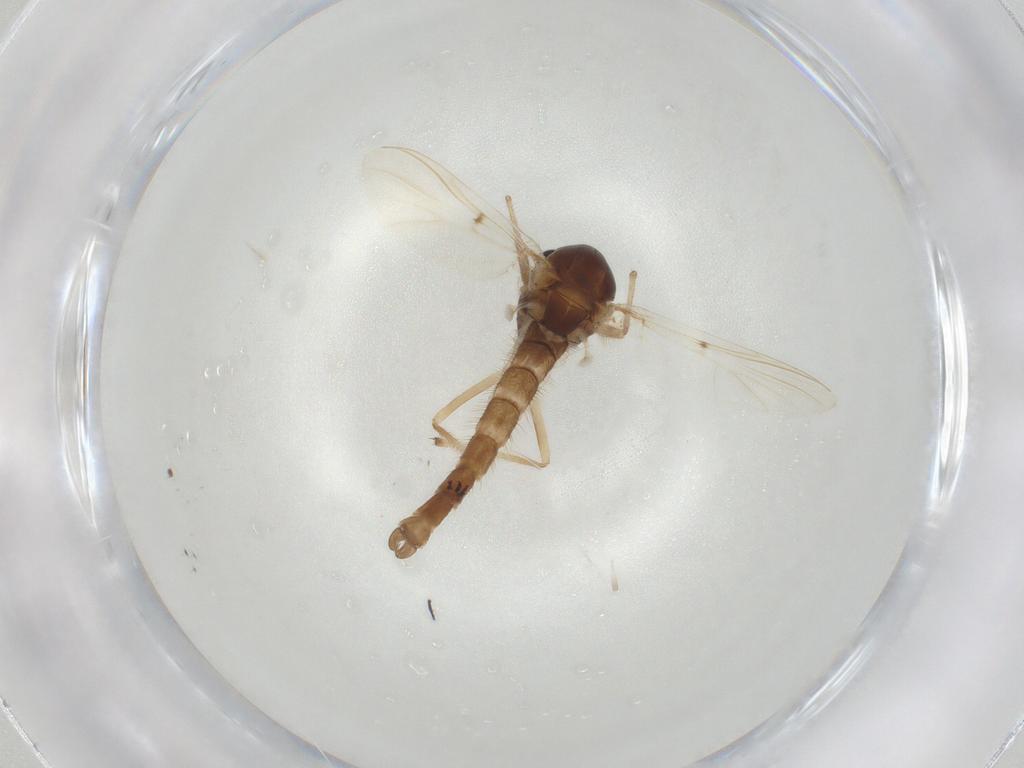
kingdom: Animalia
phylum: Arthropoda
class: Insecta
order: Diptera
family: Chironomidae
